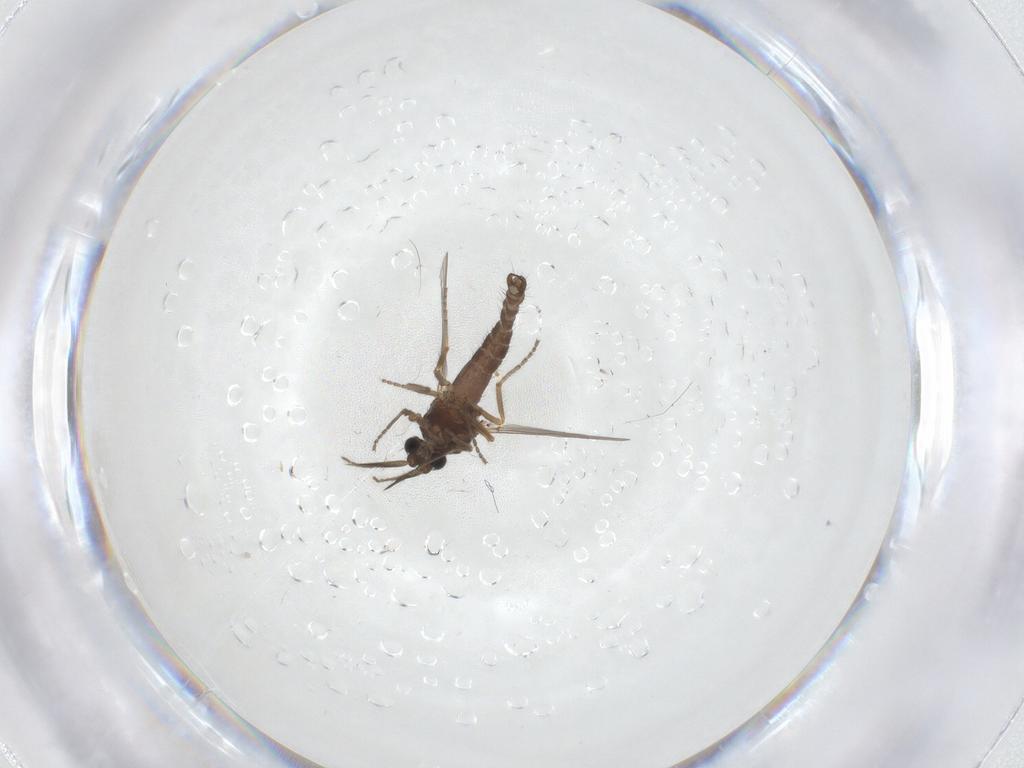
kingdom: Animalia
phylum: Arthropoda
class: Insecta
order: Diptera
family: Ceratopogonidae
